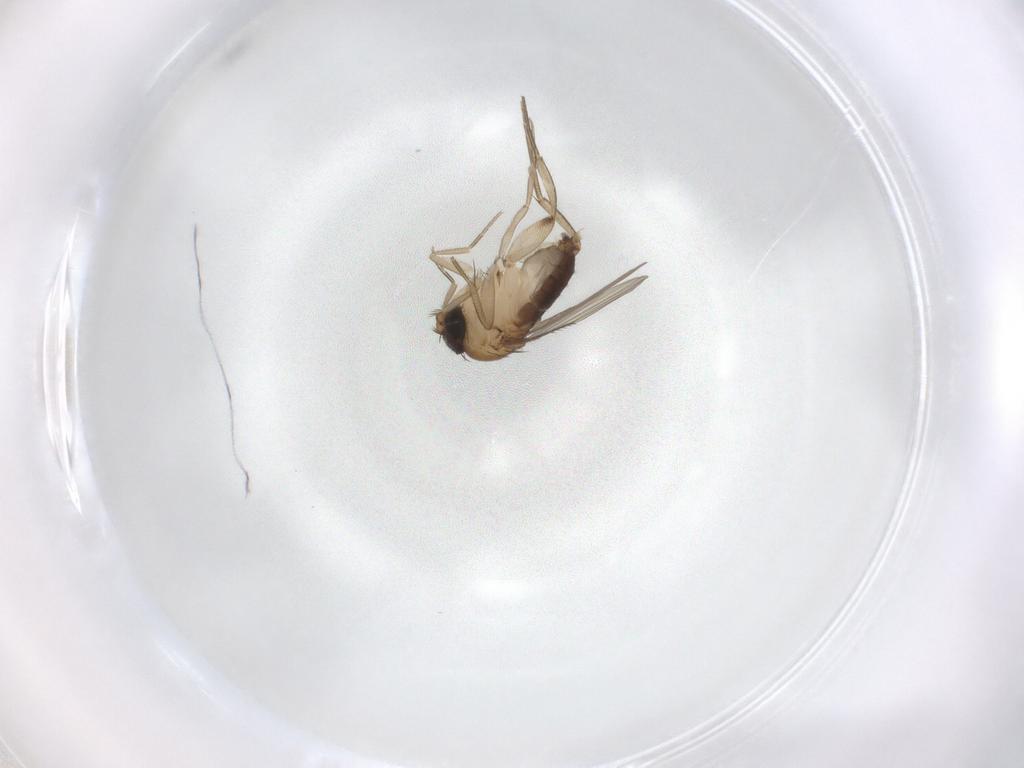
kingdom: Animalia
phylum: Arthropoda
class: Insecta
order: Diptera
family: Phoridae
